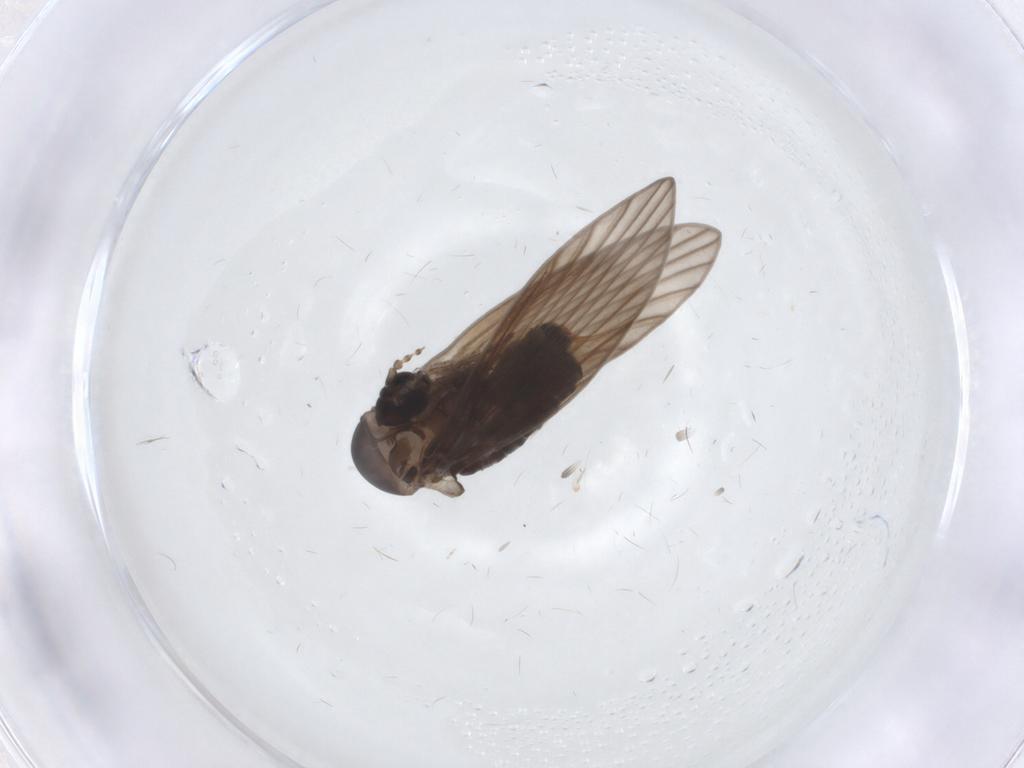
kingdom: Animalia
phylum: Arthropoda
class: Insecta
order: Diptera
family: Psychodidae
